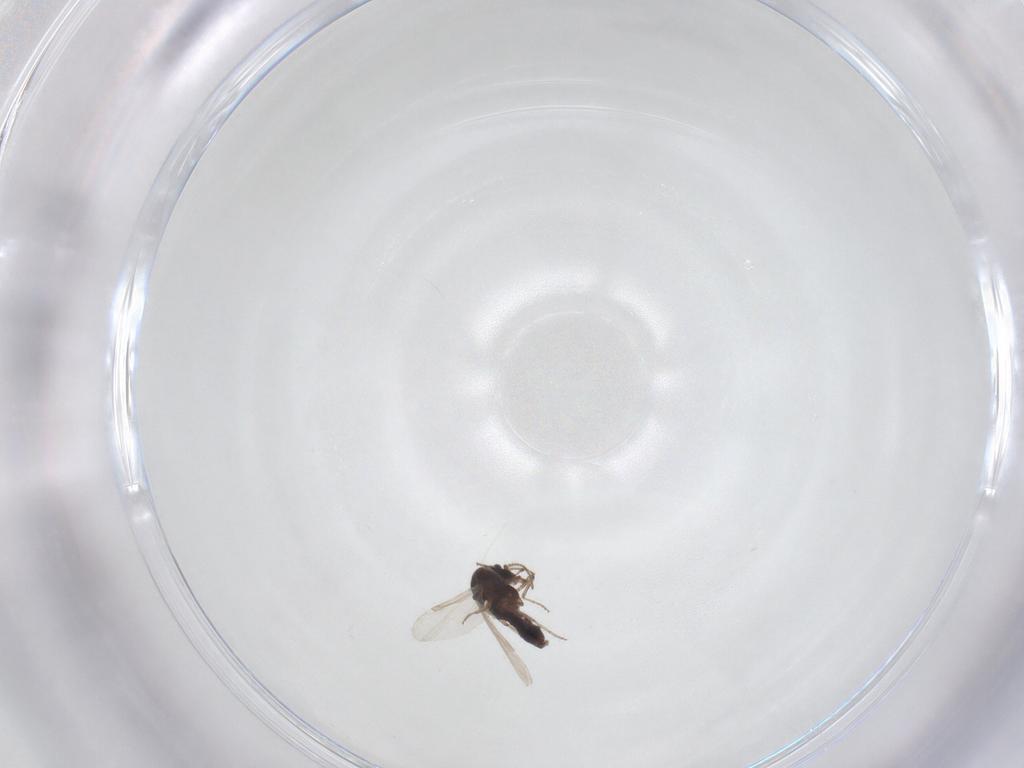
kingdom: Animalia
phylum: Arthropoda
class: Insecta
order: Diptera
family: Ceratopogonidae
